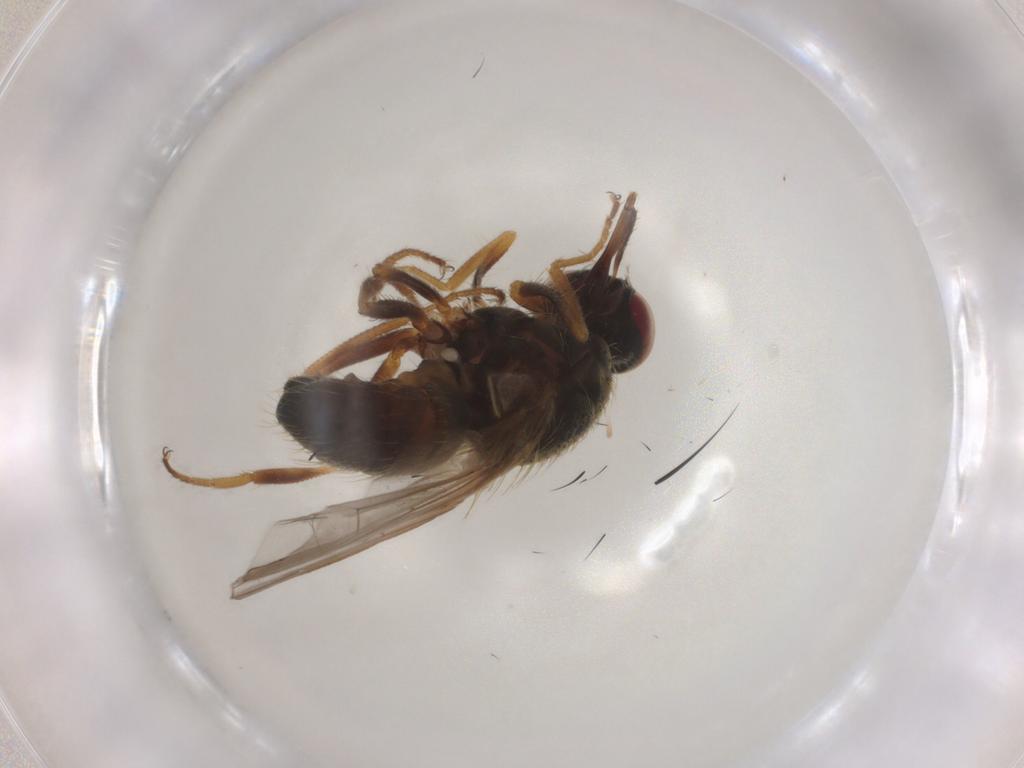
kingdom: Animalia
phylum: Arthropoda
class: Insecta
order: Diptera
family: Muscidae
